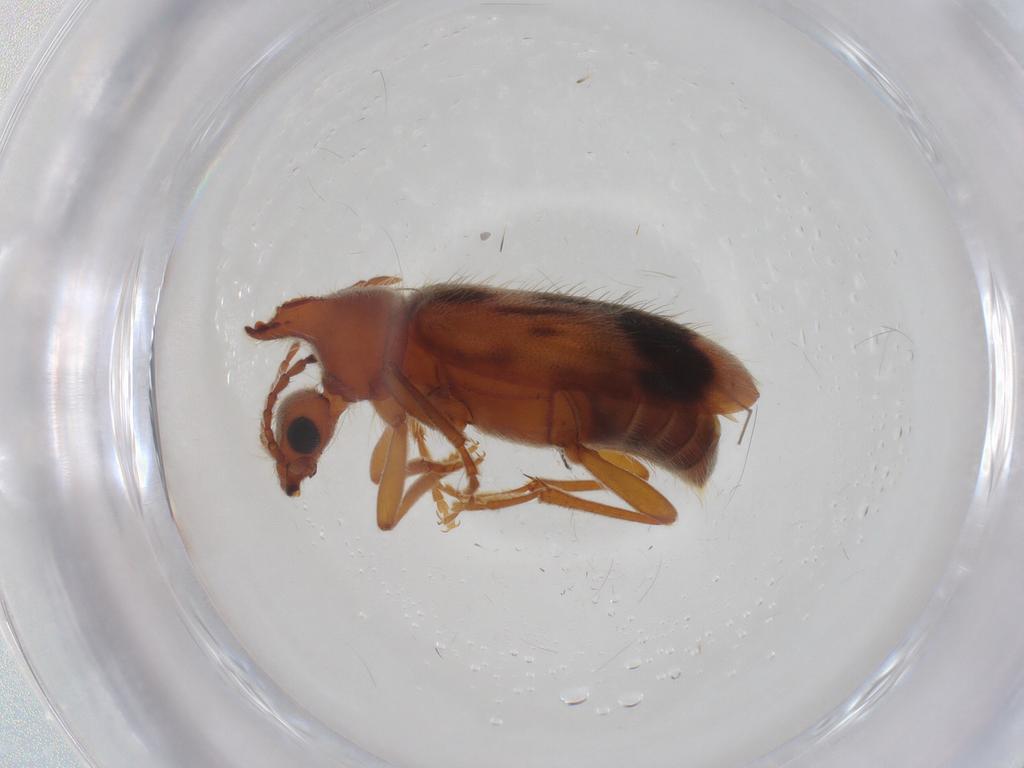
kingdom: Animalia
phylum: Arthropoda
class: Insecta
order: Coleoptera
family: Anthicidae
